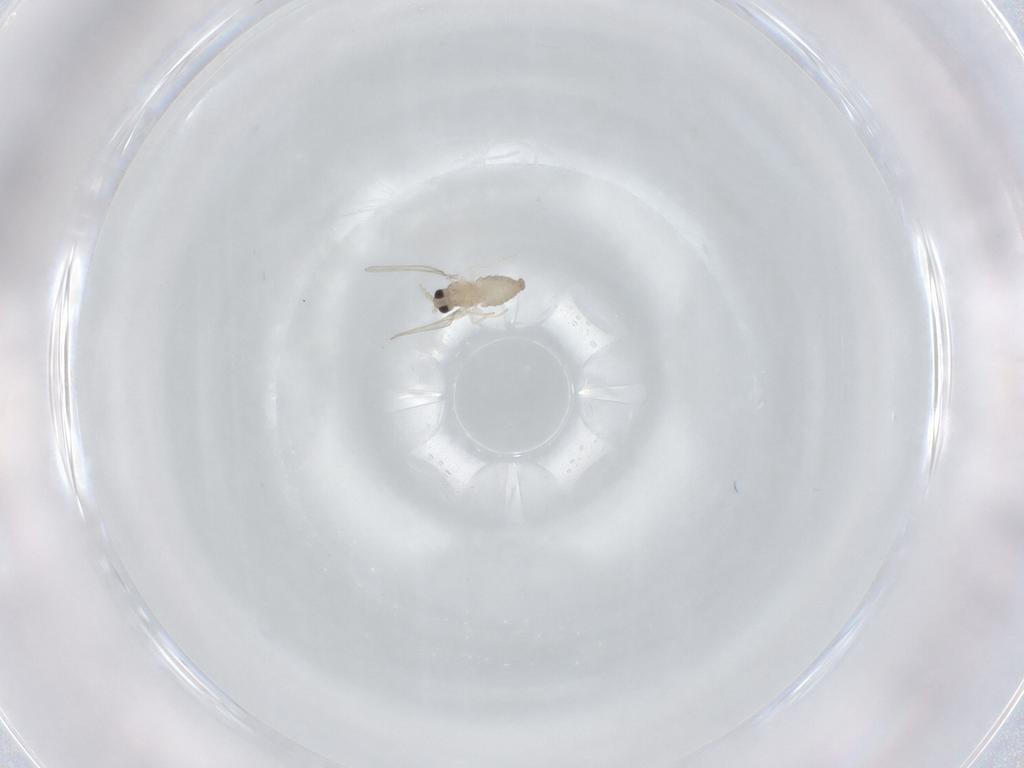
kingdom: Animalia
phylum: Arthropoda
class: Insecta
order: Diptera
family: Cecidomyiidae
